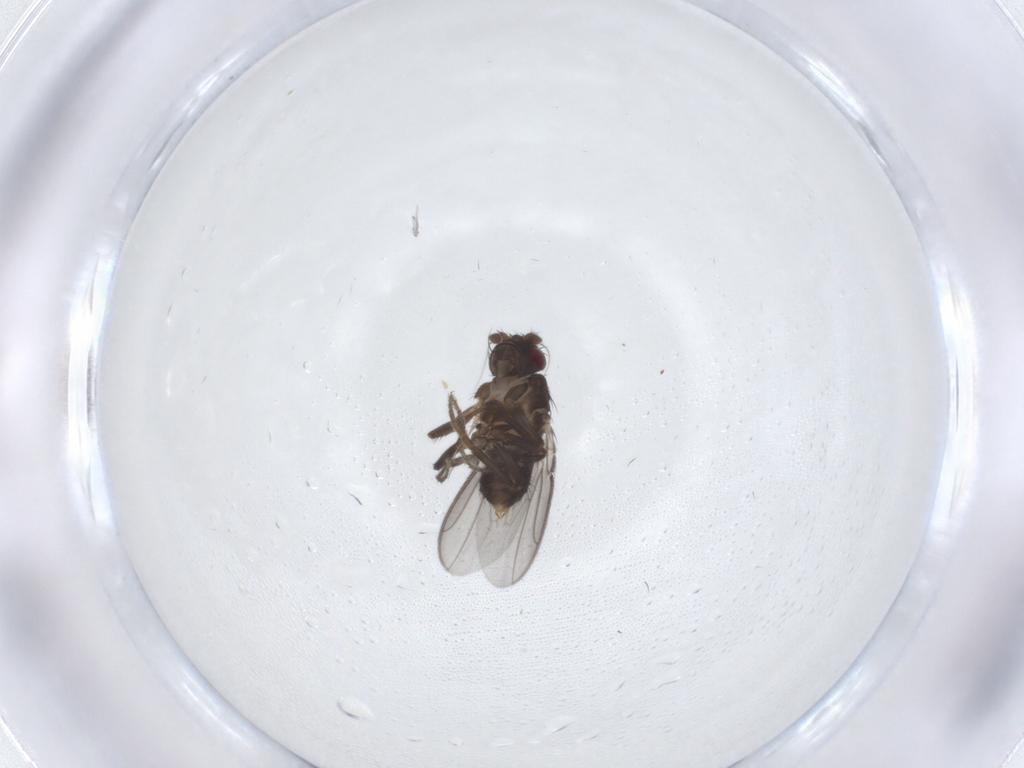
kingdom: Animalia
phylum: Arthropoda
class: Insecta
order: Diptera
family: Sphaeroceridae
